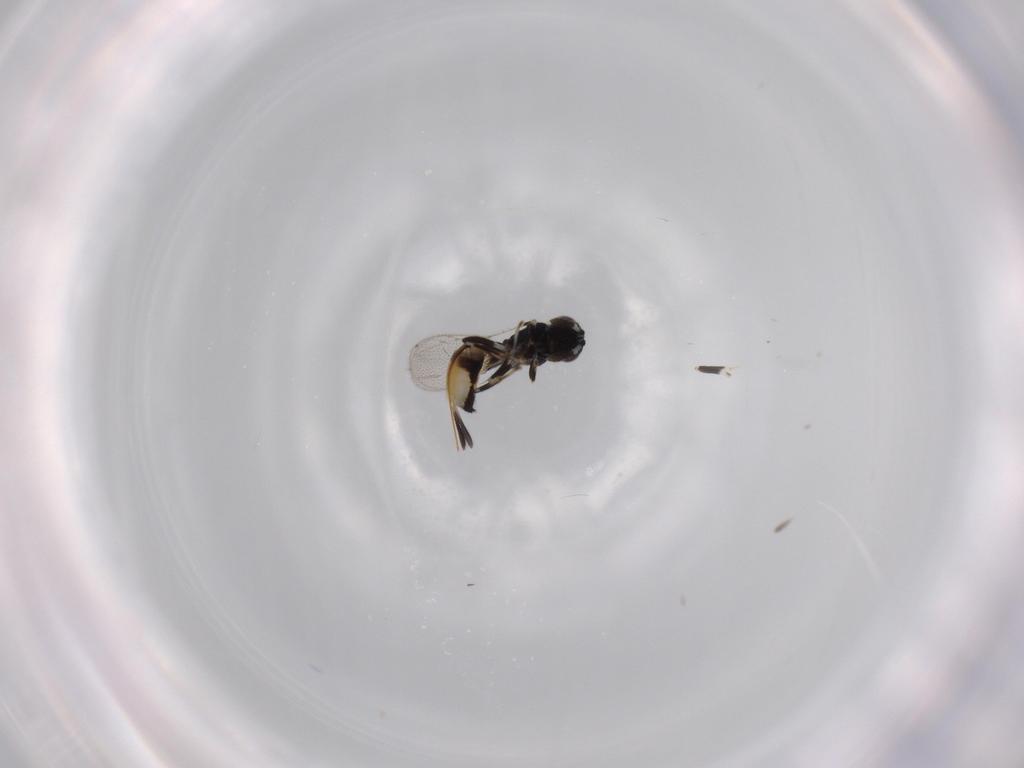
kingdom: Animalia
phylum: Arthropoda
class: Insecta
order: Hymenoptera
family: Pirenidae
